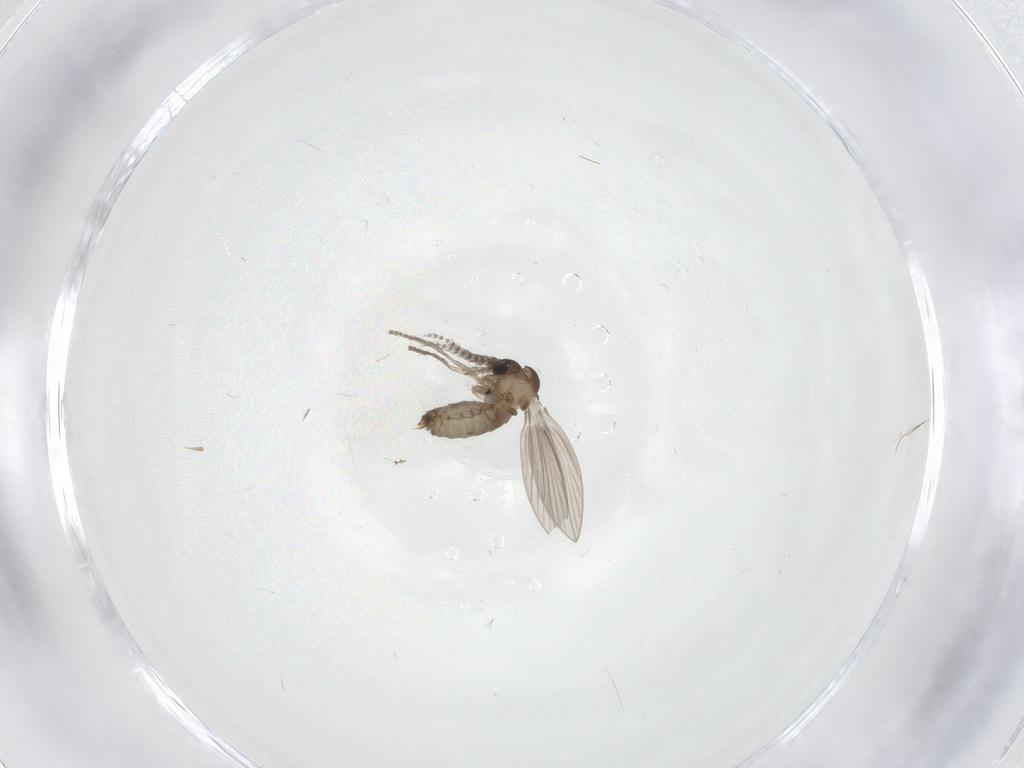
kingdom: Animalia
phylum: Arthropoda
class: Insecta
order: Diptera
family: Psychodidae
